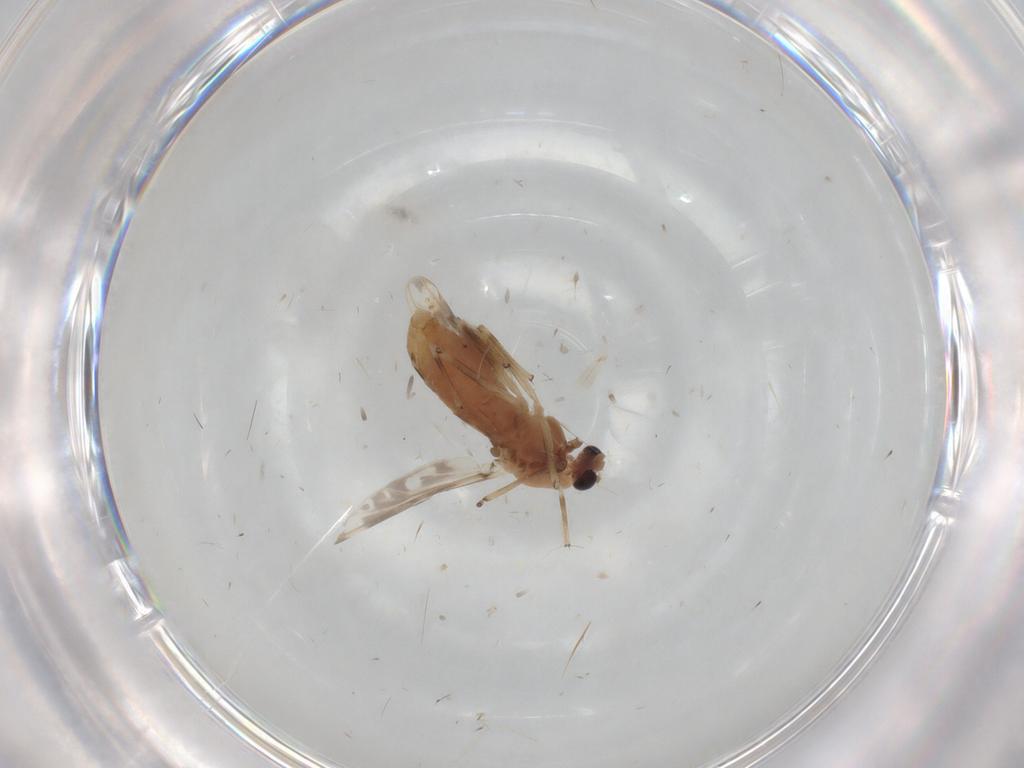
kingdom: Animalia
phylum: Arthropoda
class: Insecta
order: Diptera
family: Chironomidae
